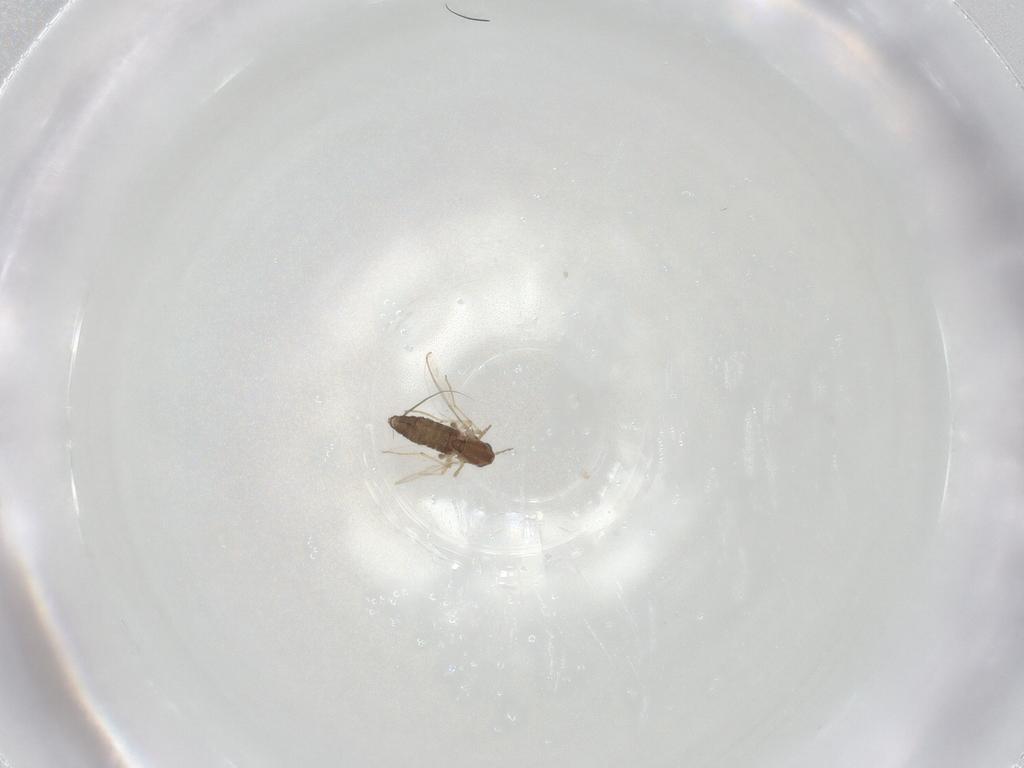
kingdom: Animalia
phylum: Arthropoda
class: Insecta
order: Diptera
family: Chironomidae
